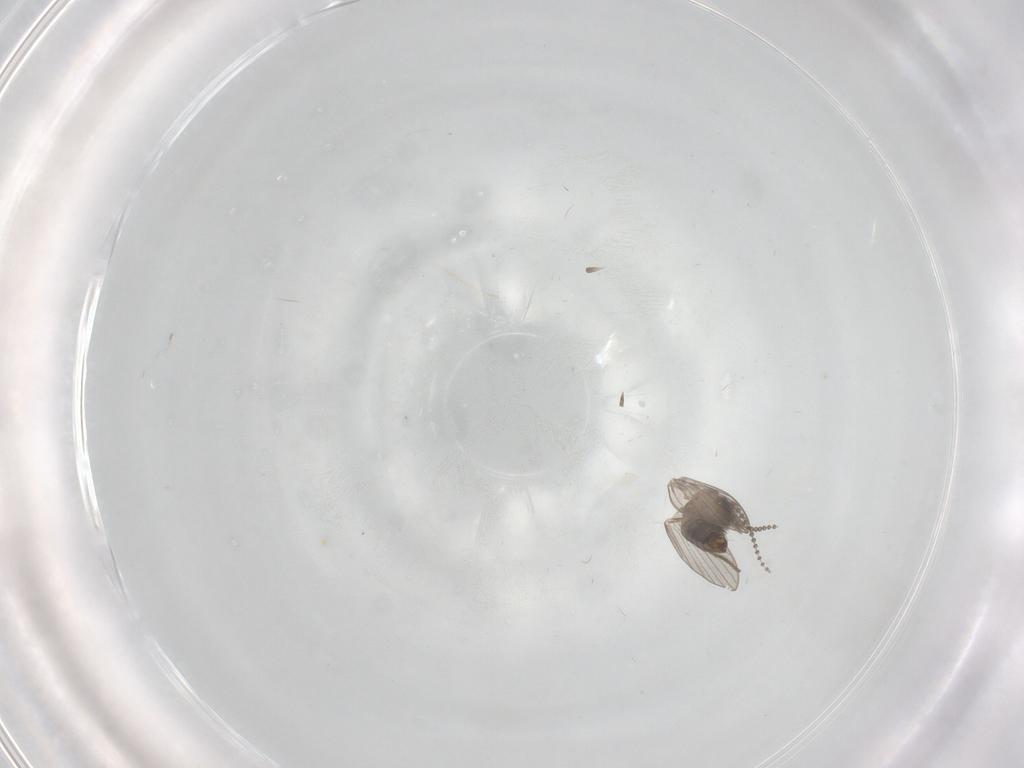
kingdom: Animalia
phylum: Arthropoda
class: Insecta
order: Diptera
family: Psychodidae
